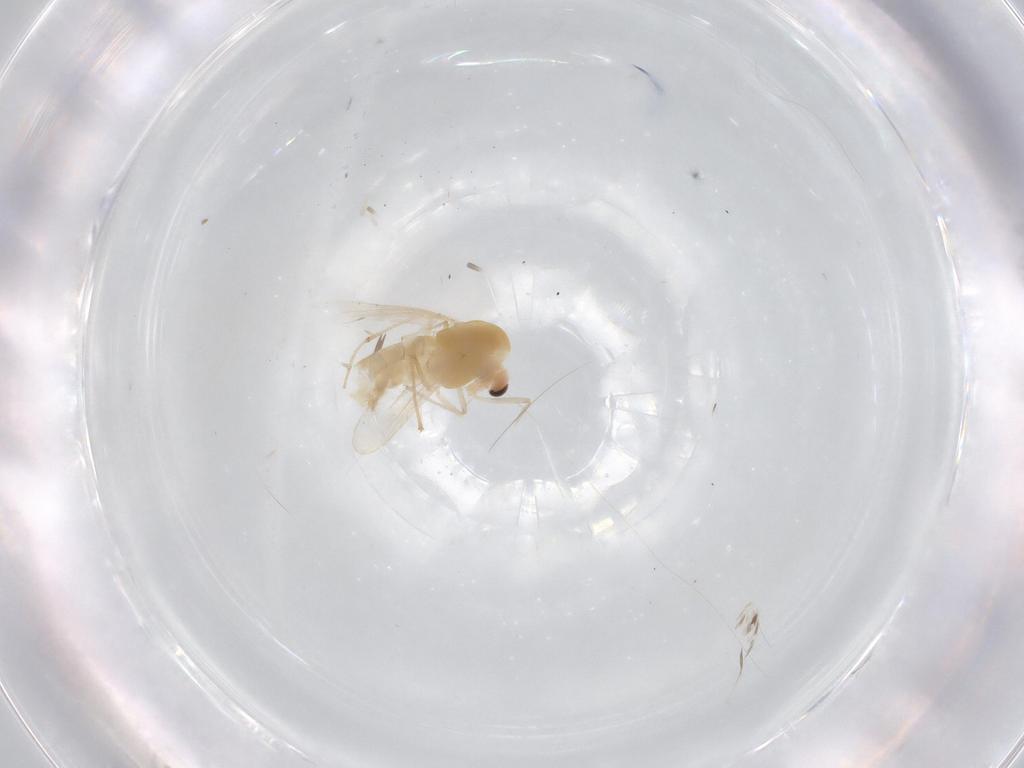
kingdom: Animalia
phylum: Arthropoda
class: Insecta
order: Diptera
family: Chironomidae
